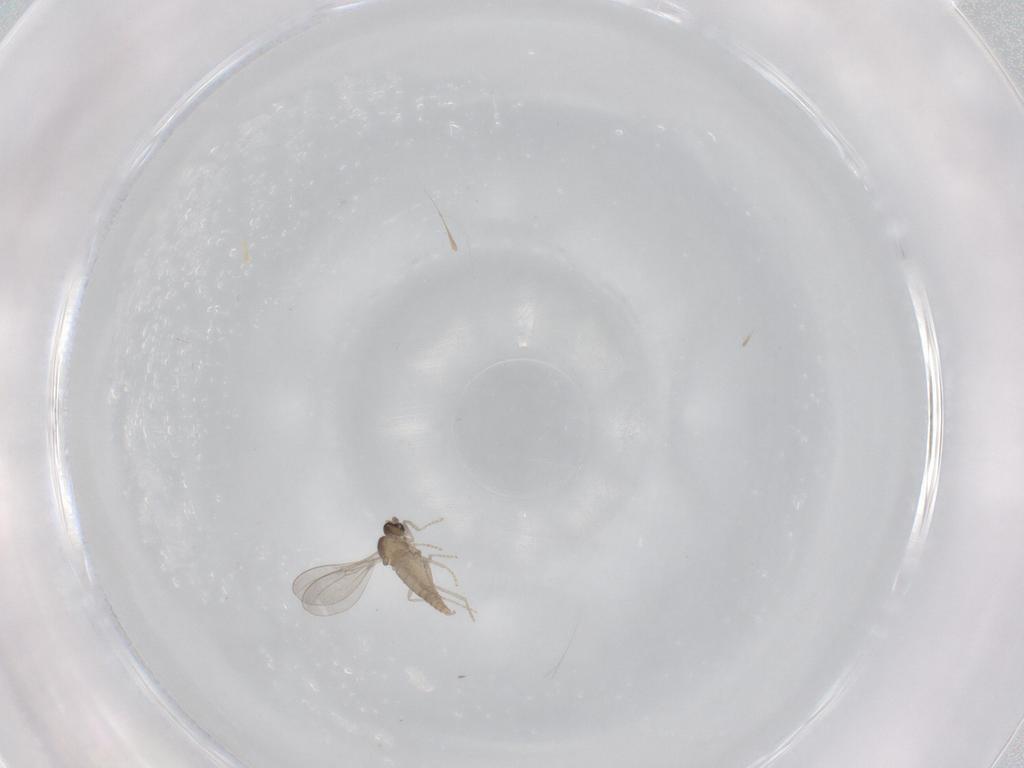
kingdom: Animalia
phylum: Arthropoda
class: Insecta
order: Diptera
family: Cecidomyiidae
